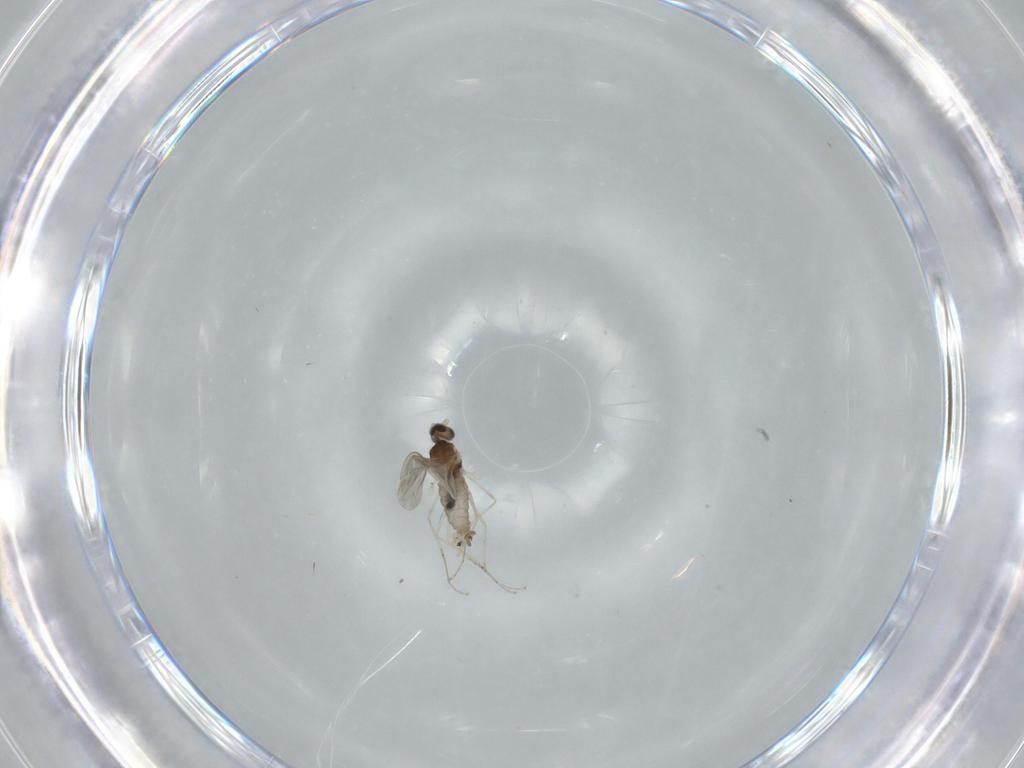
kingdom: Animalia
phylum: Arthropoda
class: Insecta
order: Diptera
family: Cecidomyiidae
